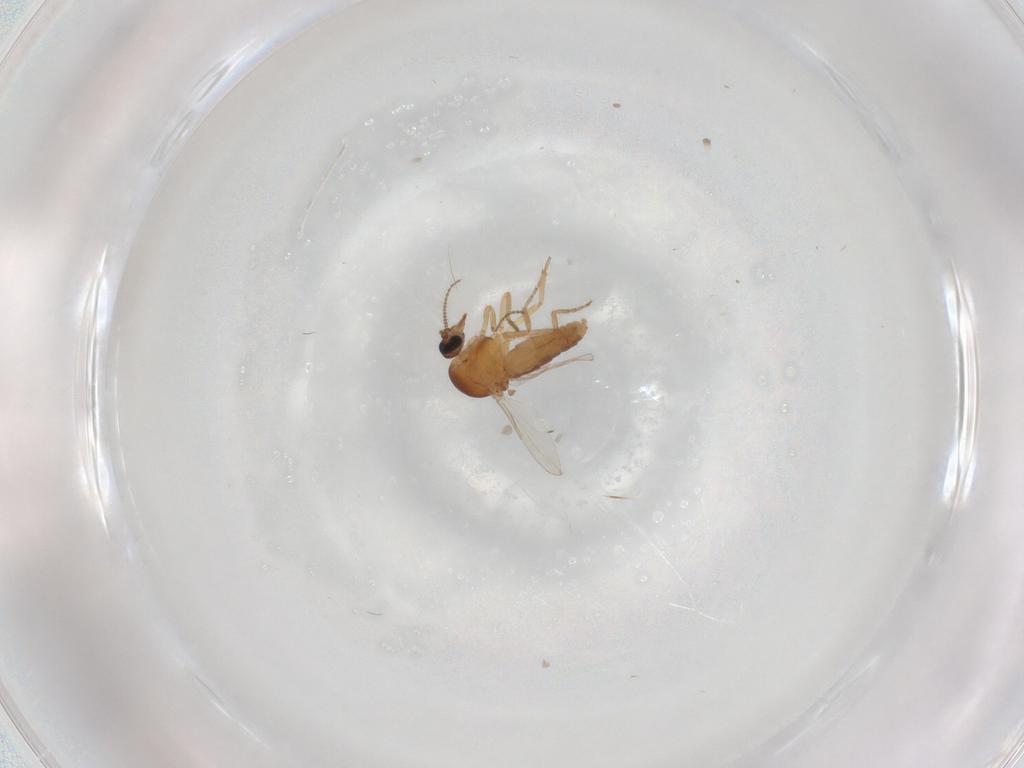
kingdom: Animalia
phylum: Arthropoda
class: Insecta
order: Diptera
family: Ceratopogonidae
